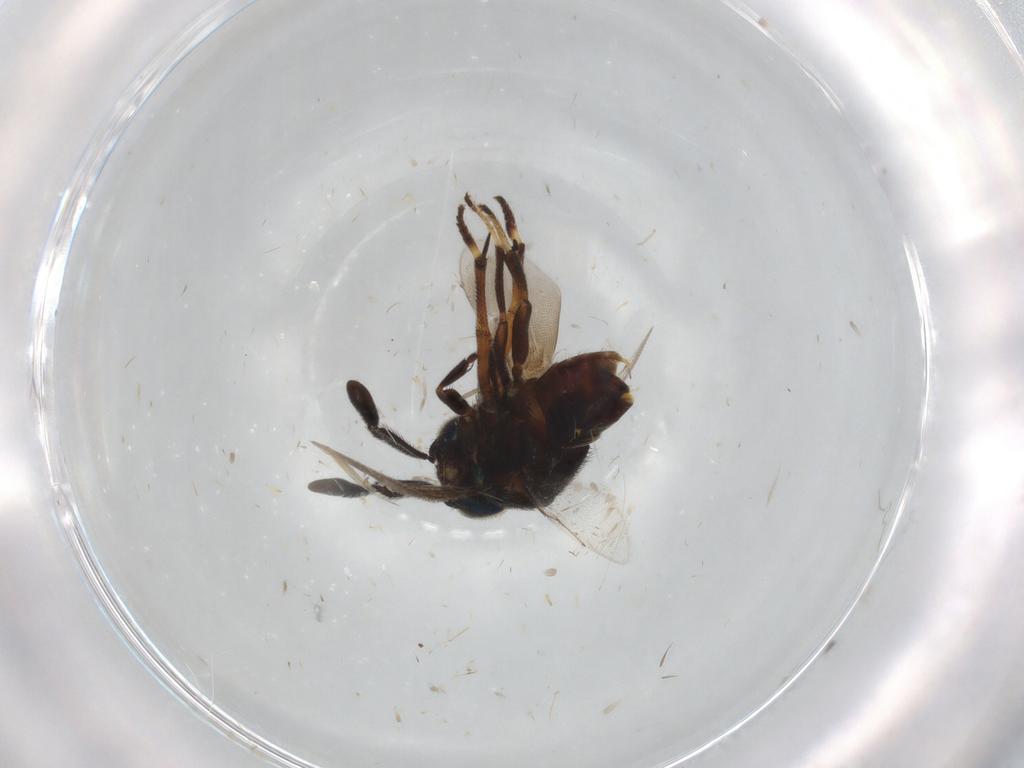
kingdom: Animalia
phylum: Arthropoda
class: Insecta
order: Hymenoptera
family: Encyrtidae
